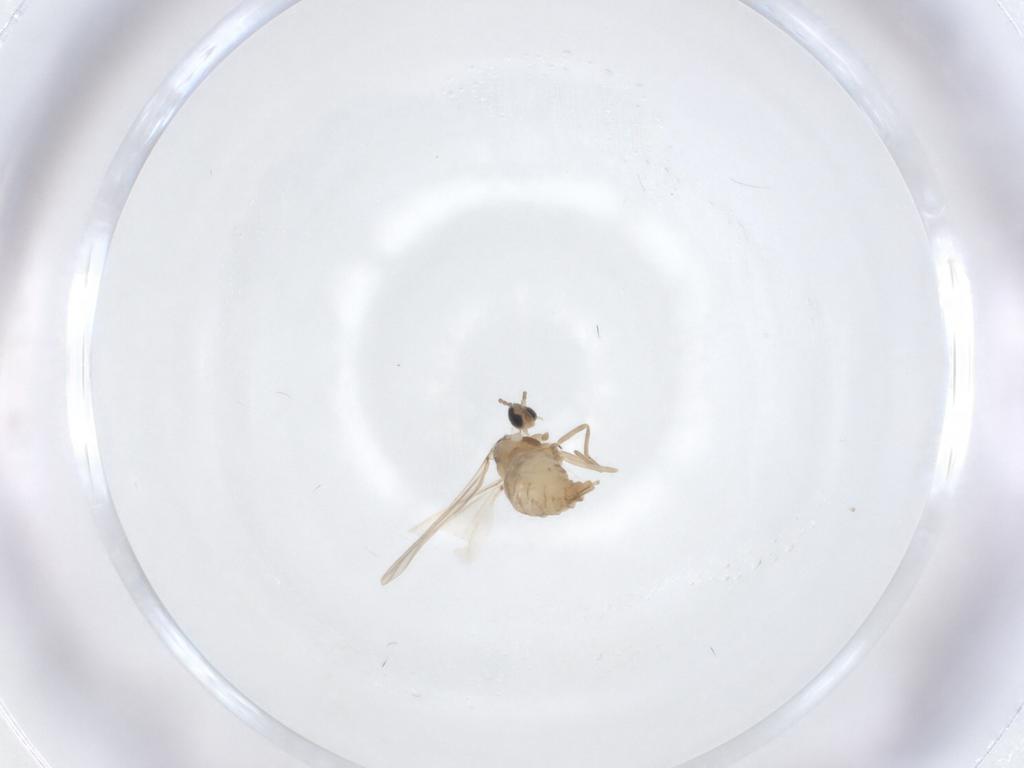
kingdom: Animalia
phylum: Arthropoda
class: Insecta
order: Diptera
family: Cecidomyiidae
